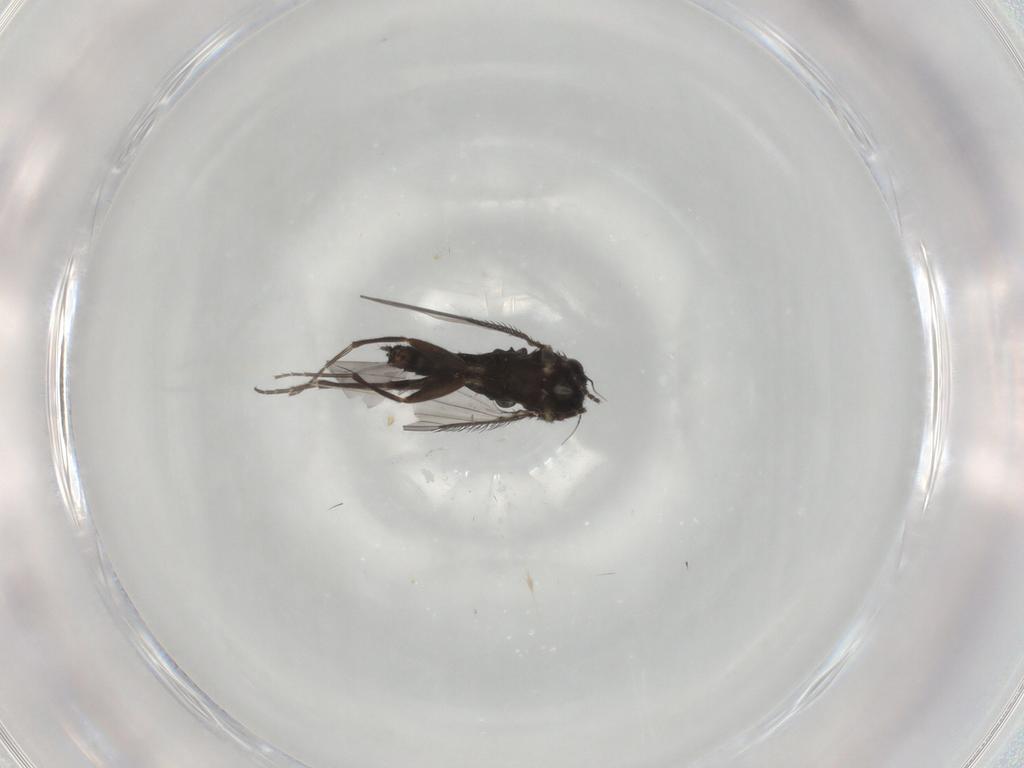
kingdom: Animalia
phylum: Arthropoda
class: Insecta
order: Diptera
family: Phoridae
